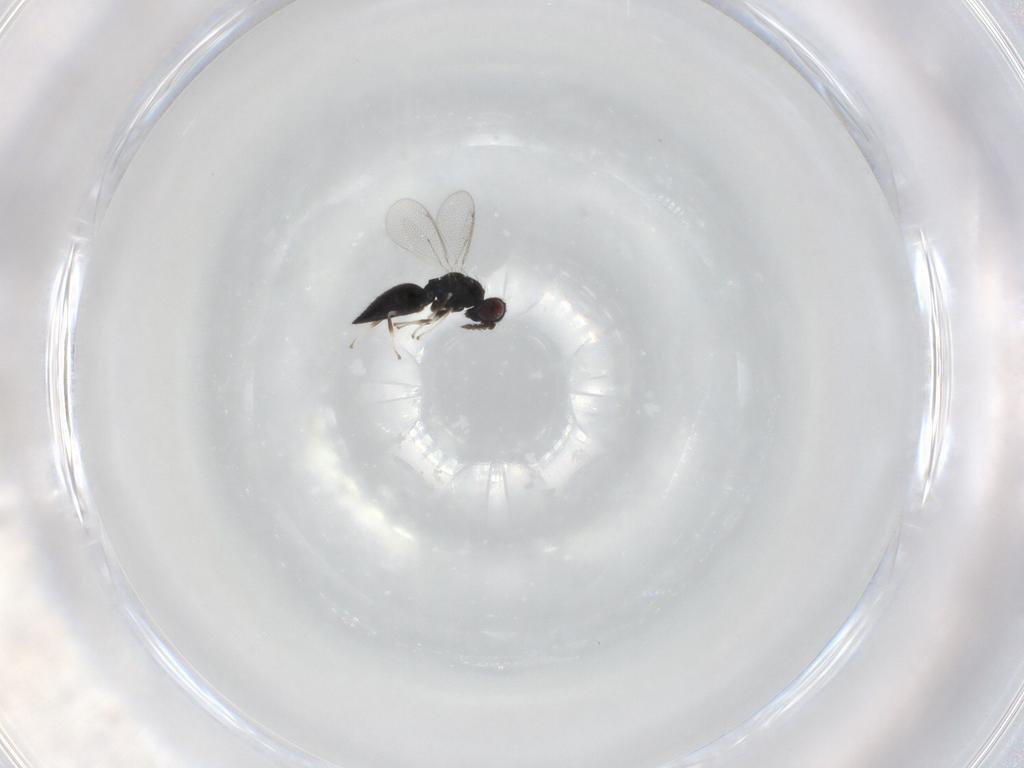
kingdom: Animalia
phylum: Arthropoda
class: Insecta
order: Hymenoptera
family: Eulophidae
